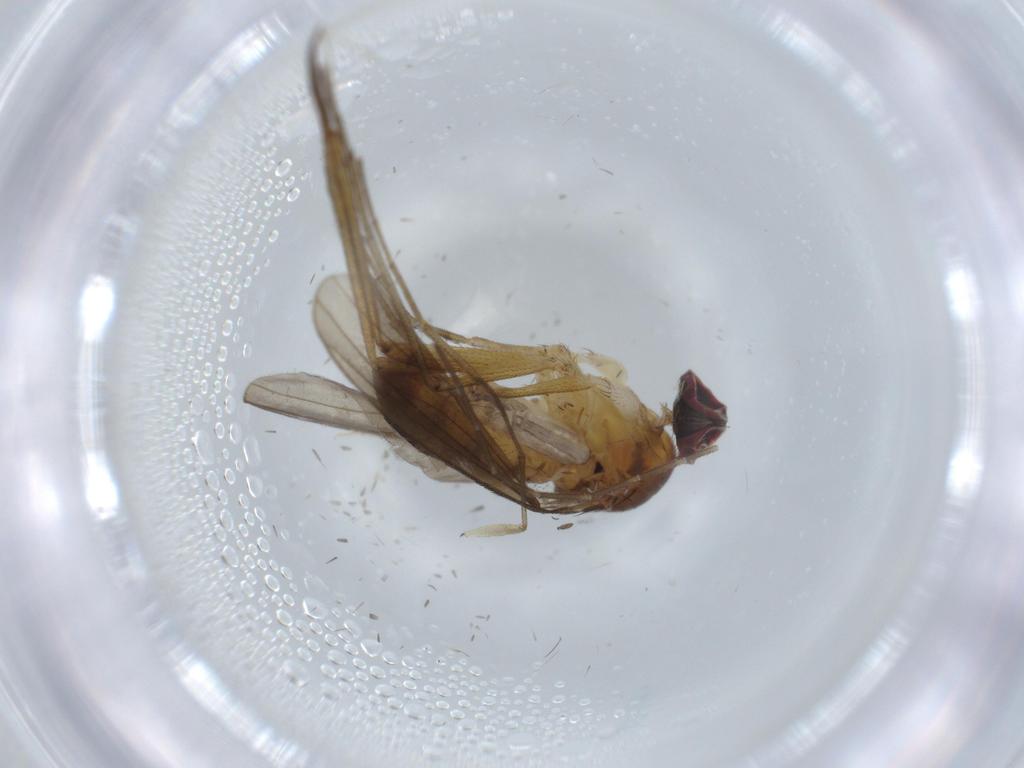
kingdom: Animalia
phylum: Arthropoda
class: Insecta
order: Diptera
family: Chironomidae
